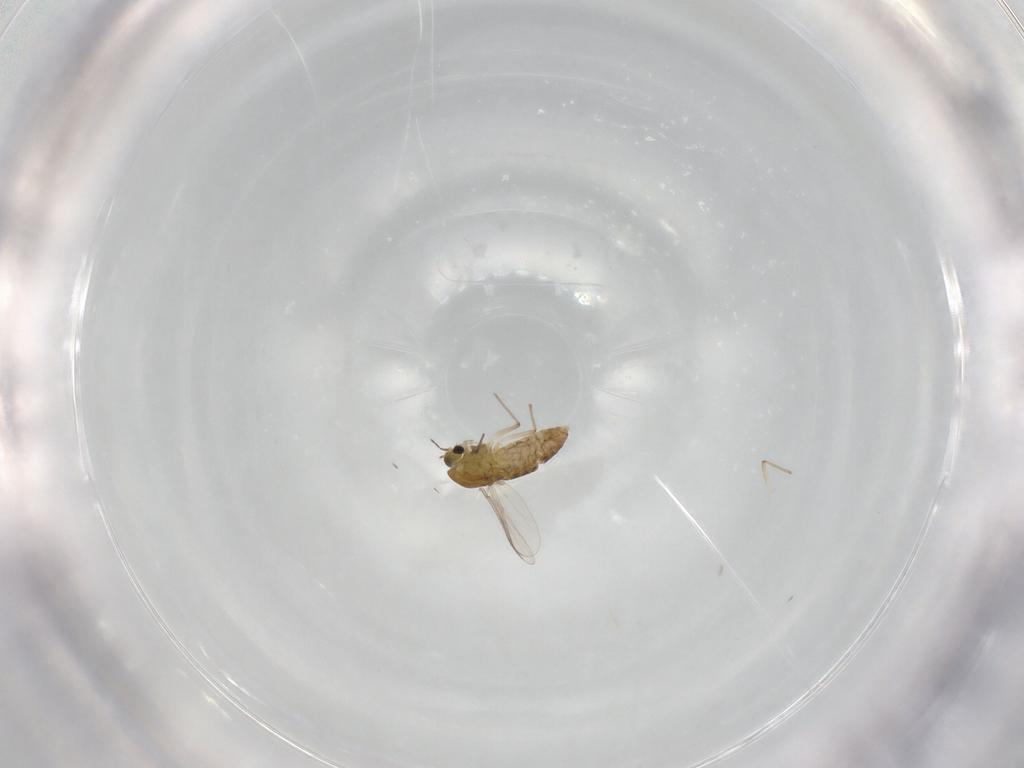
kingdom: Animalia
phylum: Arthropoda
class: Insecta
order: Diptera
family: Chironomidae
